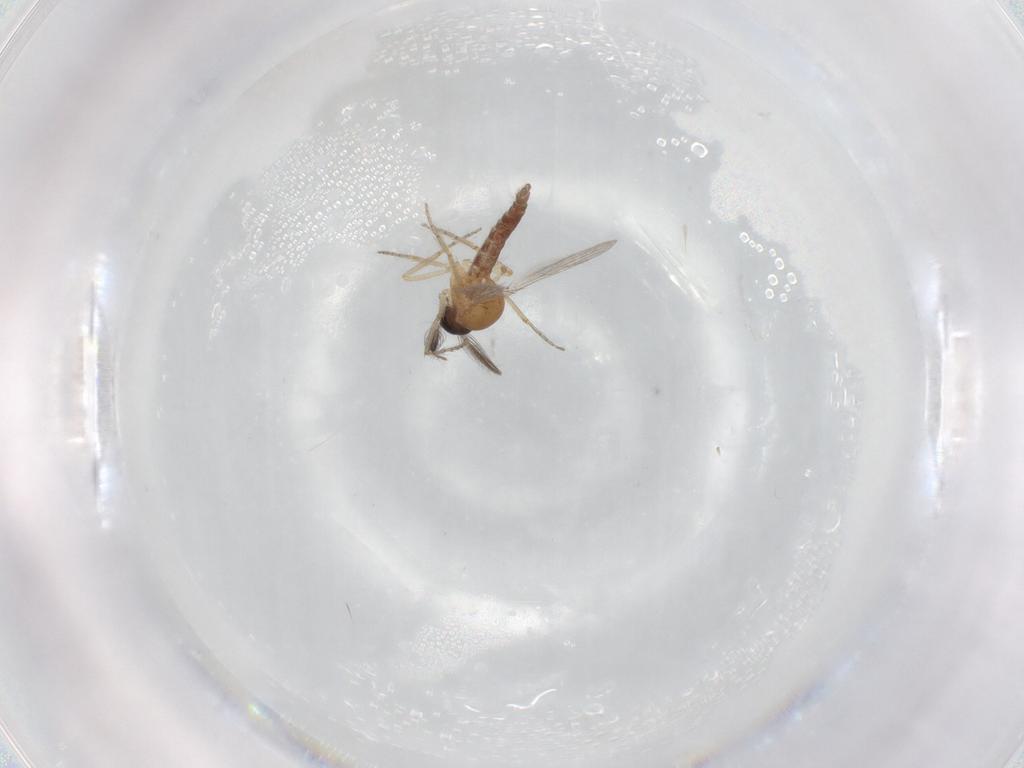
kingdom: Animalia
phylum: Arthropoda
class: Insecta
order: Diptera
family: Ceratopogonidae
